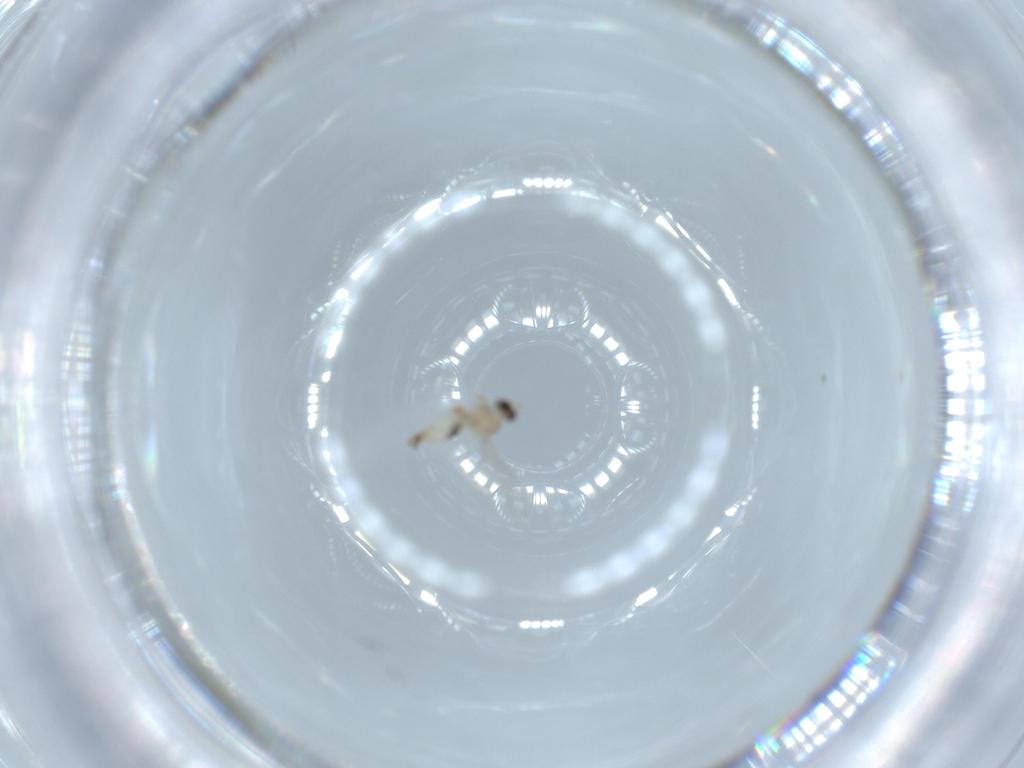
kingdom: Animalia
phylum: Arthropoda
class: Insecta
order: Diptera
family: Cecidomyiidae
